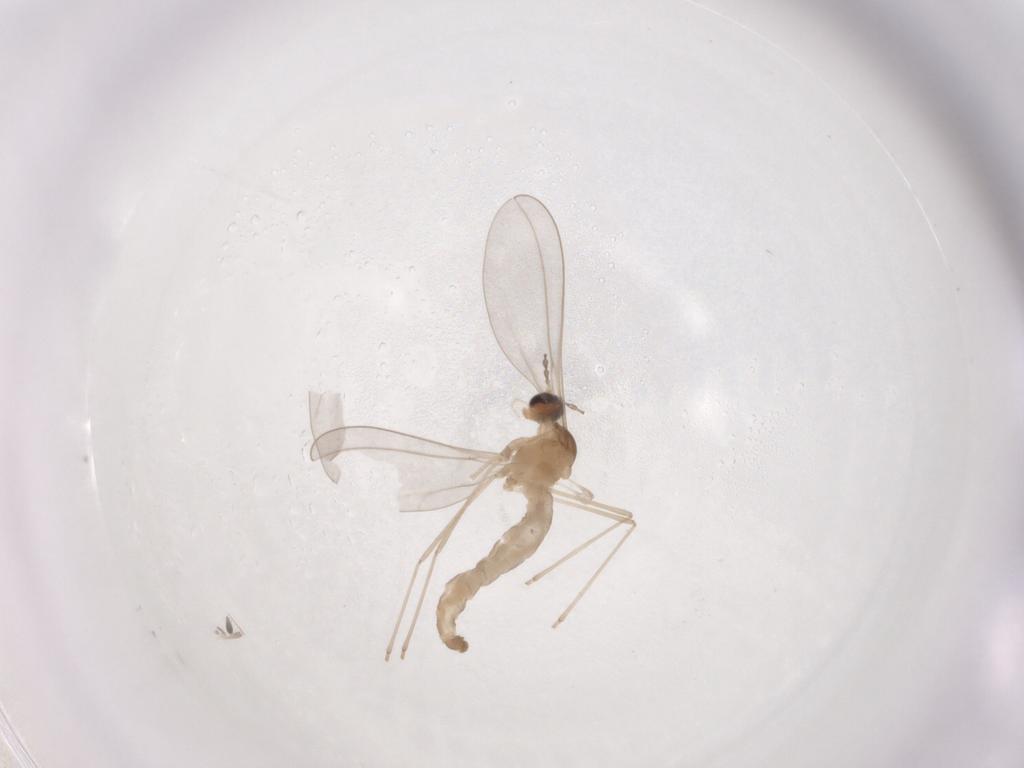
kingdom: Animalia
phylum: Arthropoda
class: Insecta
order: Diptera
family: Cecidomyiidae
